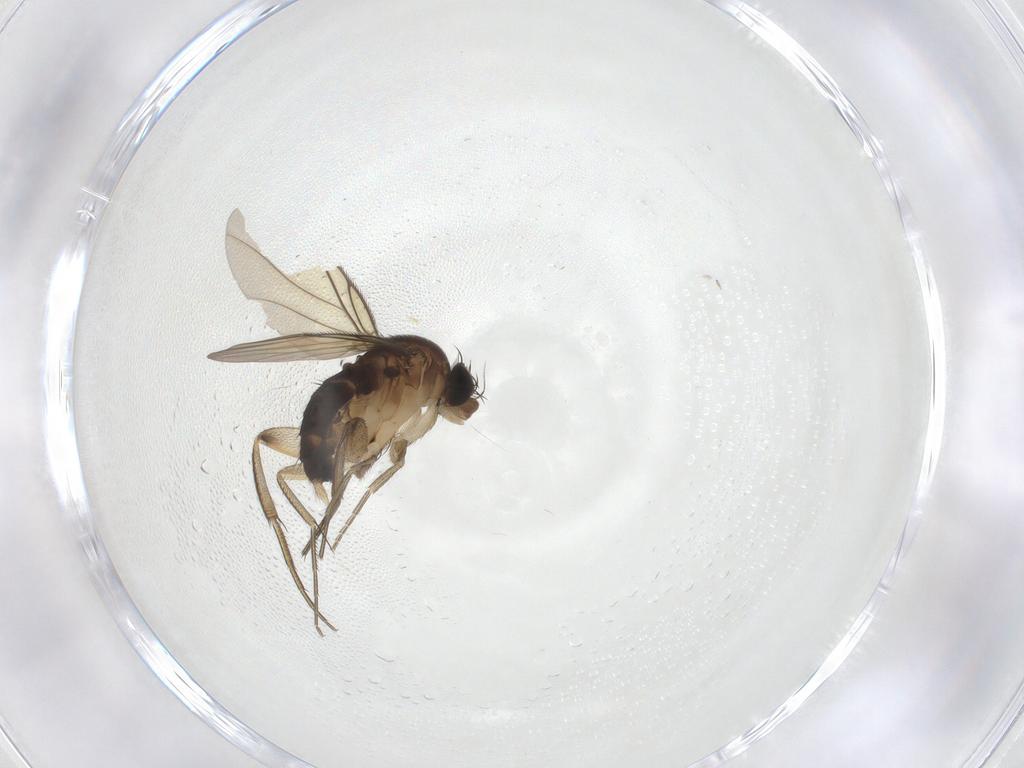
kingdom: Animalia
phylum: Arthropoda
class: Insecta
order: Diptera
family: Phoridae
